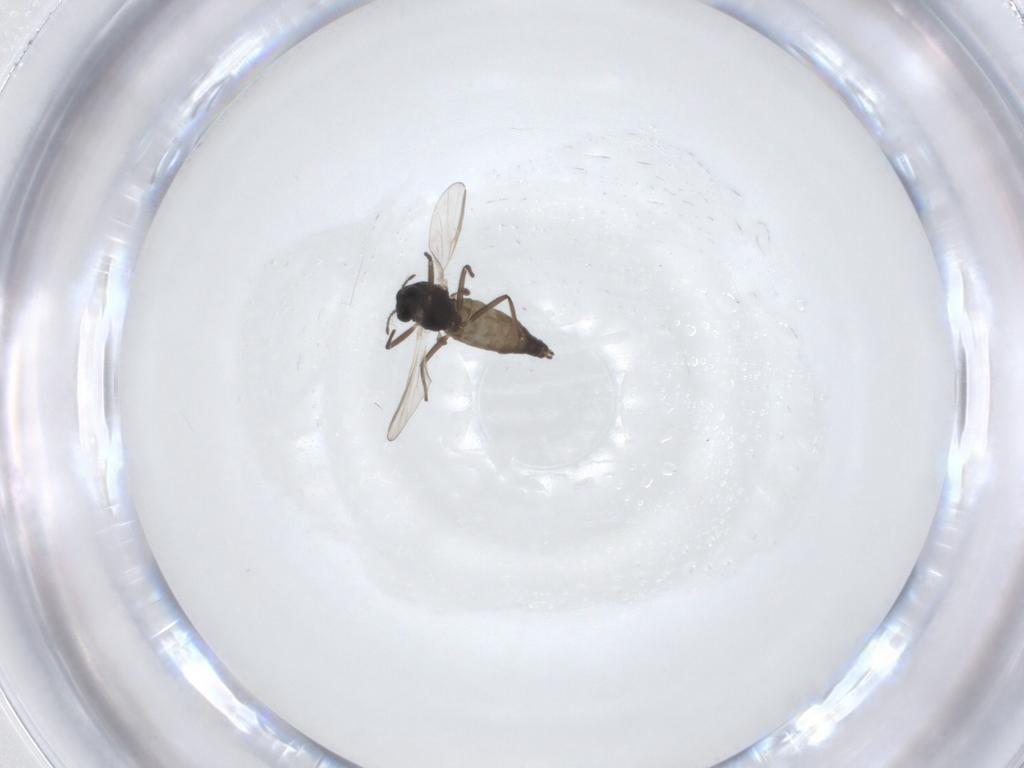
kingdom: Animalia
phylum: Arthropoda
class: Insecta
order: Diptera
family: Chironomidae
